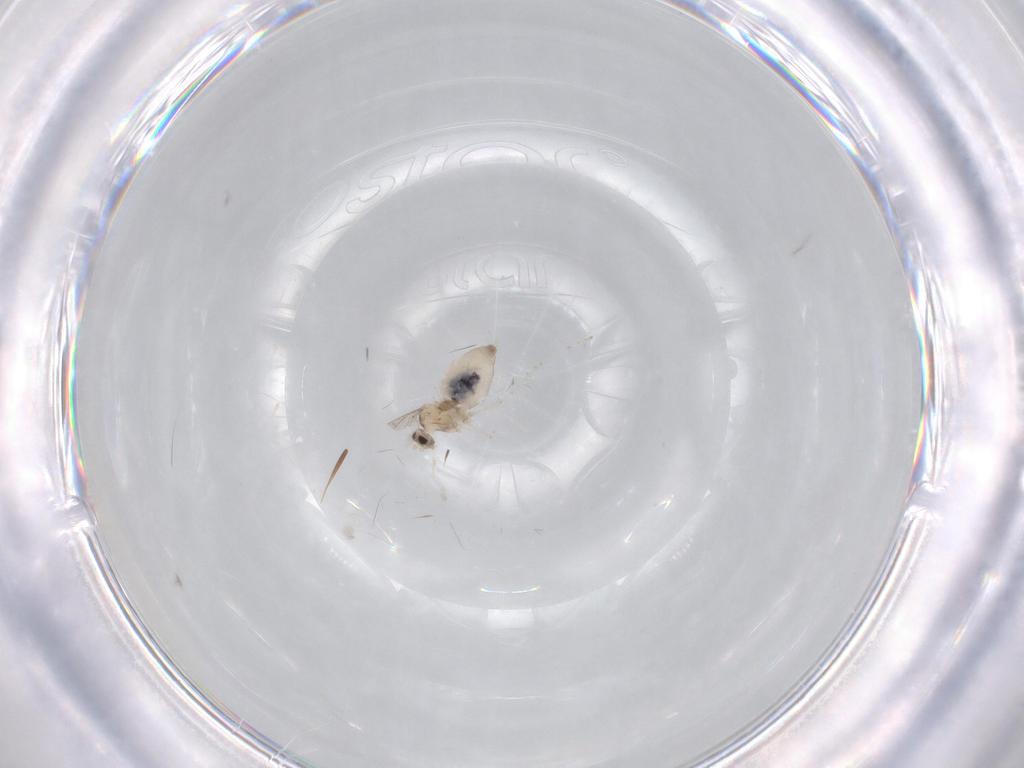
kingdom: Animalia
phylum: Arthropoda
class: Insecta
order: Diptera
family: Cecidomyiidae
